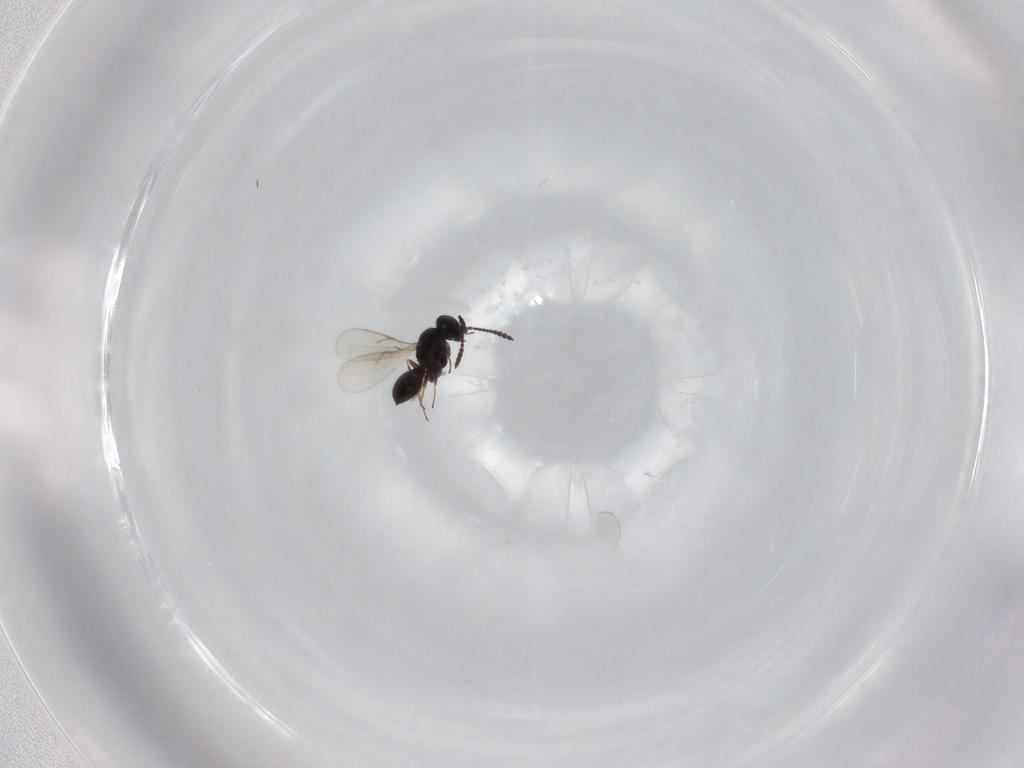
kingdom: Animalia
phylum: Arthropoda
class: Insecta
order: Hymenoptera
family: Scelionidae
